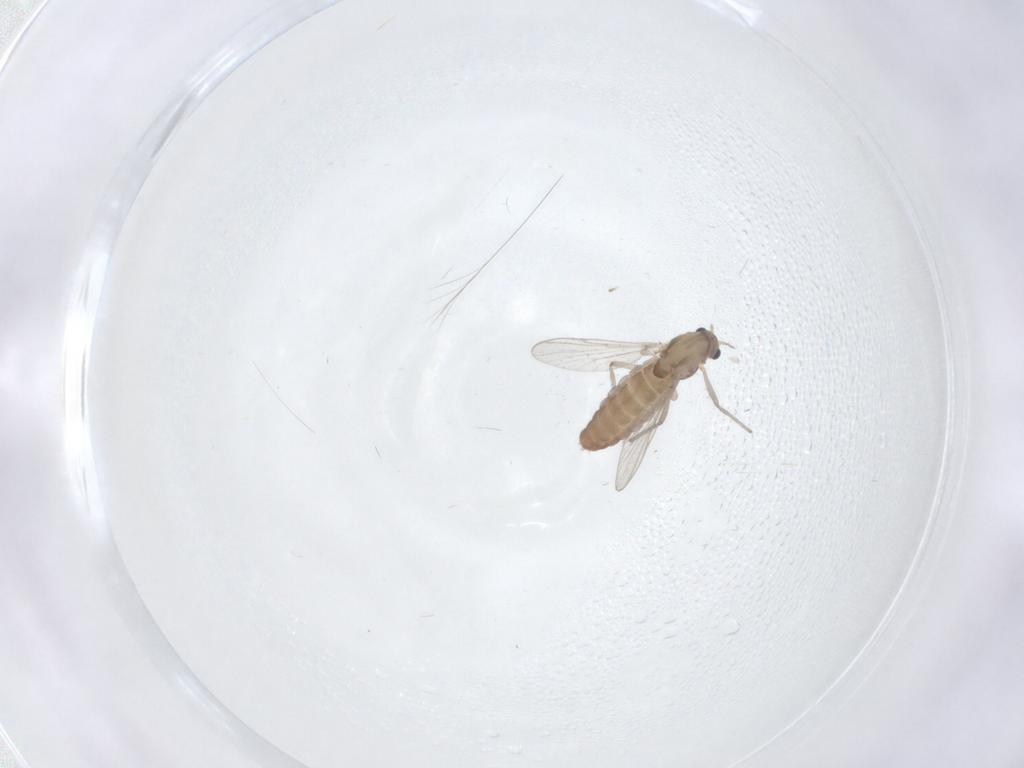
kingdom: Animalia
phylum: Arthropoda
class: Insecta
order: Diptera
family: Chironomidae
